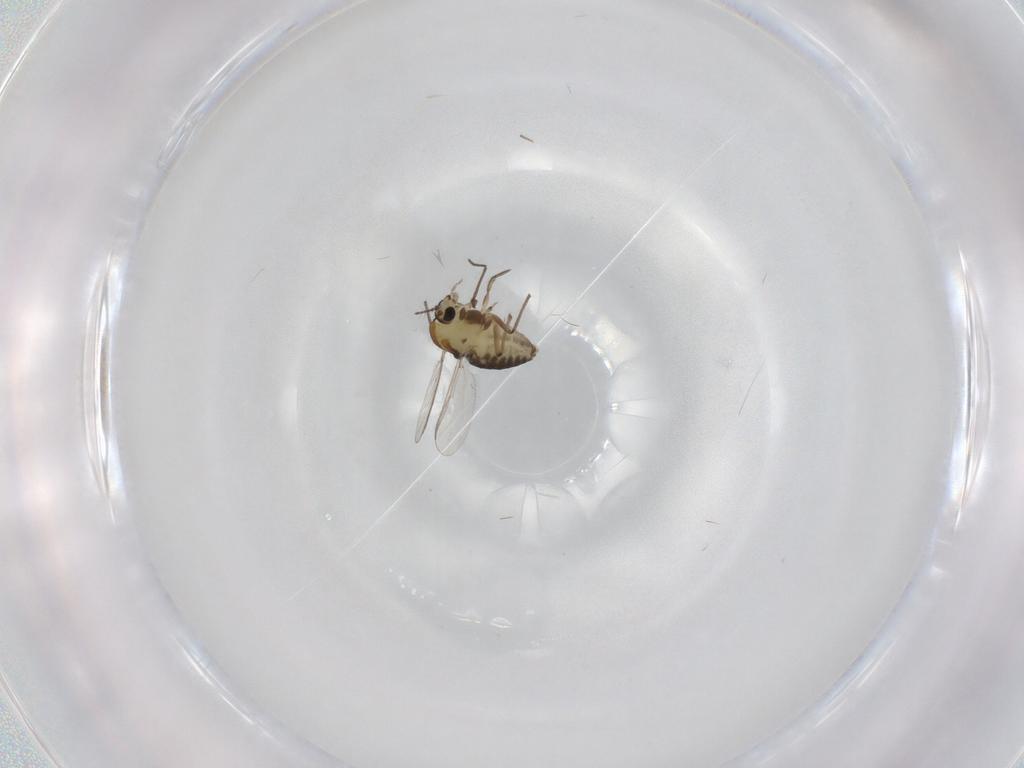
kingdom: Animalia
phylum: Arthropoda
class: Insecta
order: Diptera
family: Chironomidae
